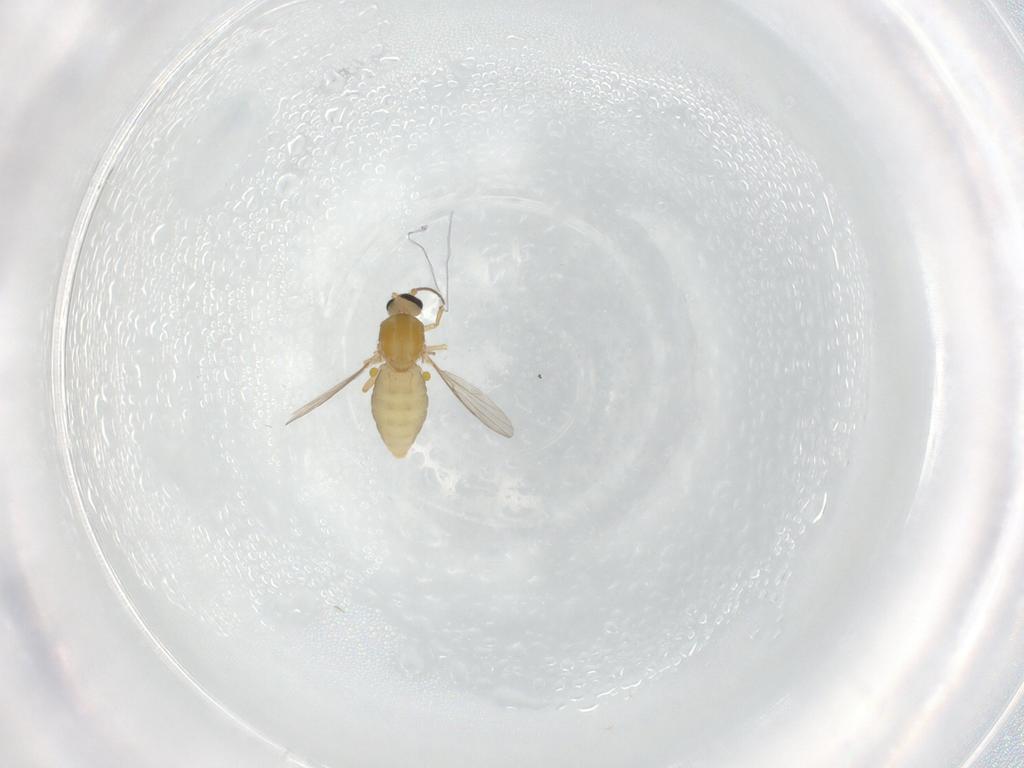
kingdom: Animalia
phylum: Arthropoda
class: Insecta
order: Diptera
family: Ceratopogonidae
